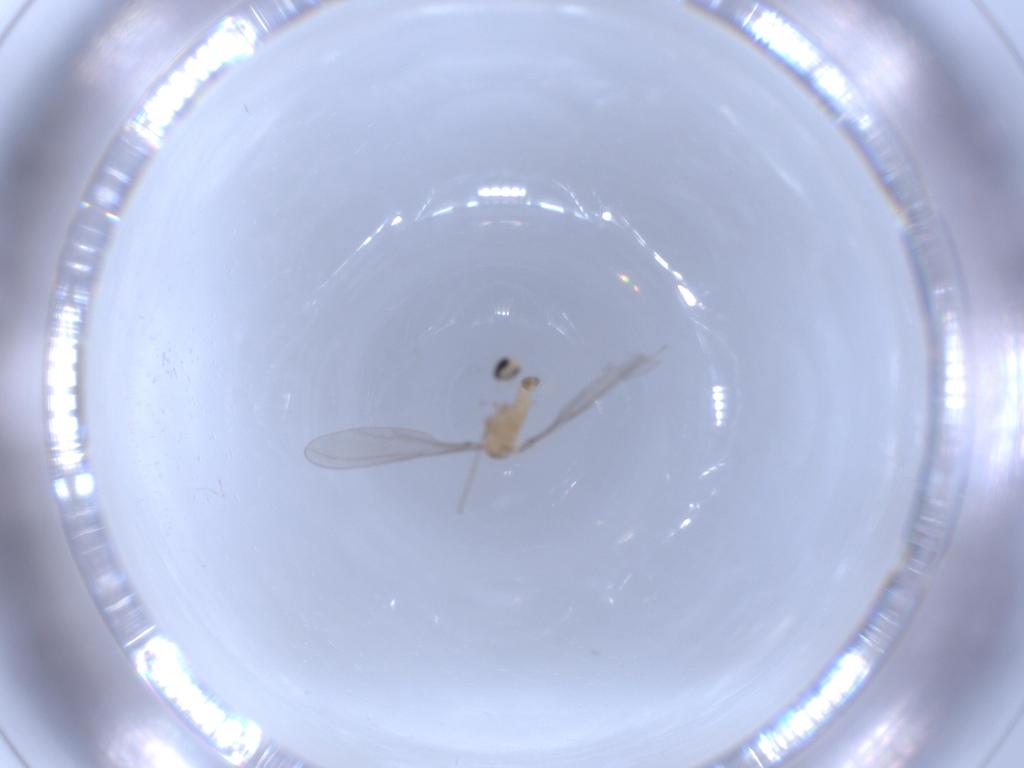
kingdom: Animalia
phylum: Arthropoda
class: Insecta
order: Diptera
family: Cecidomyiidae
